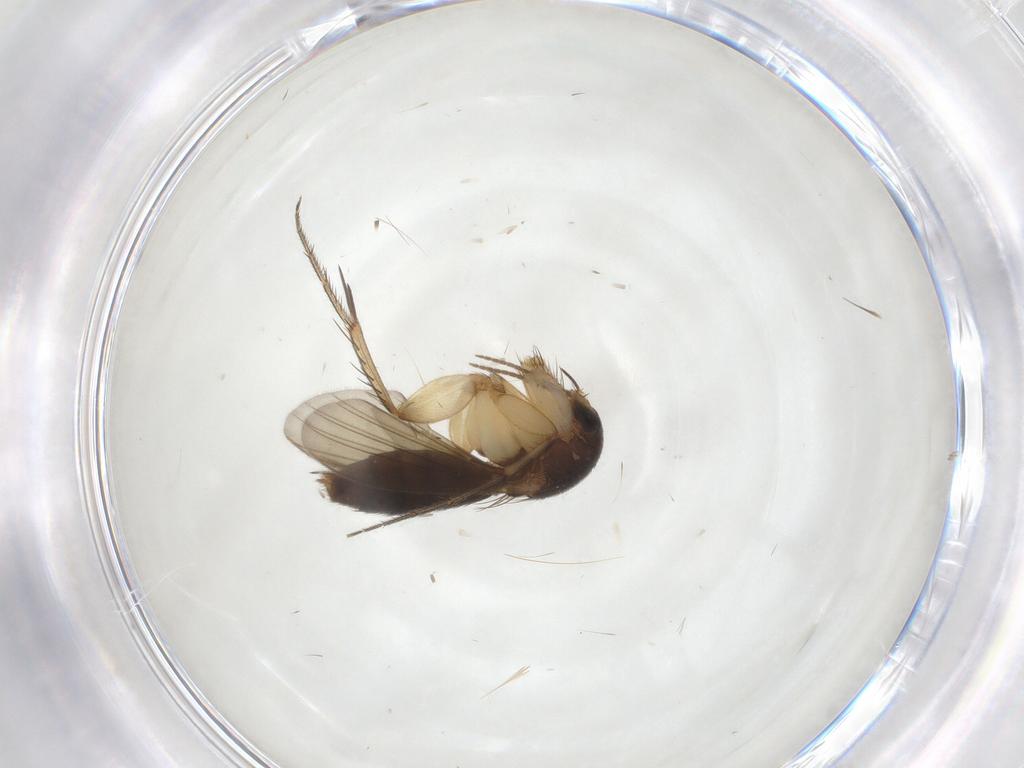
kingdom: Animalia
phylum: Arthropoda
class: Insecta
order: Diptera
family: Mycetophilidae
